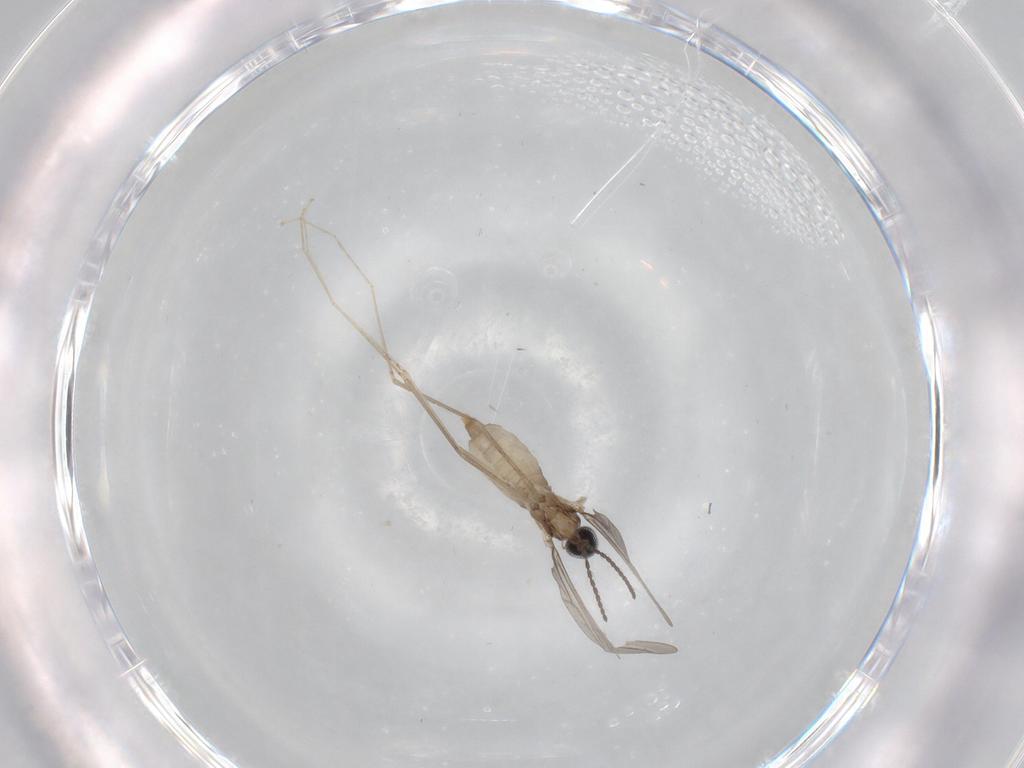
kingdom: Animalia
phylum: Arthropoda
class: Insecta
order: Diptera
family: Cecidomyiidae
